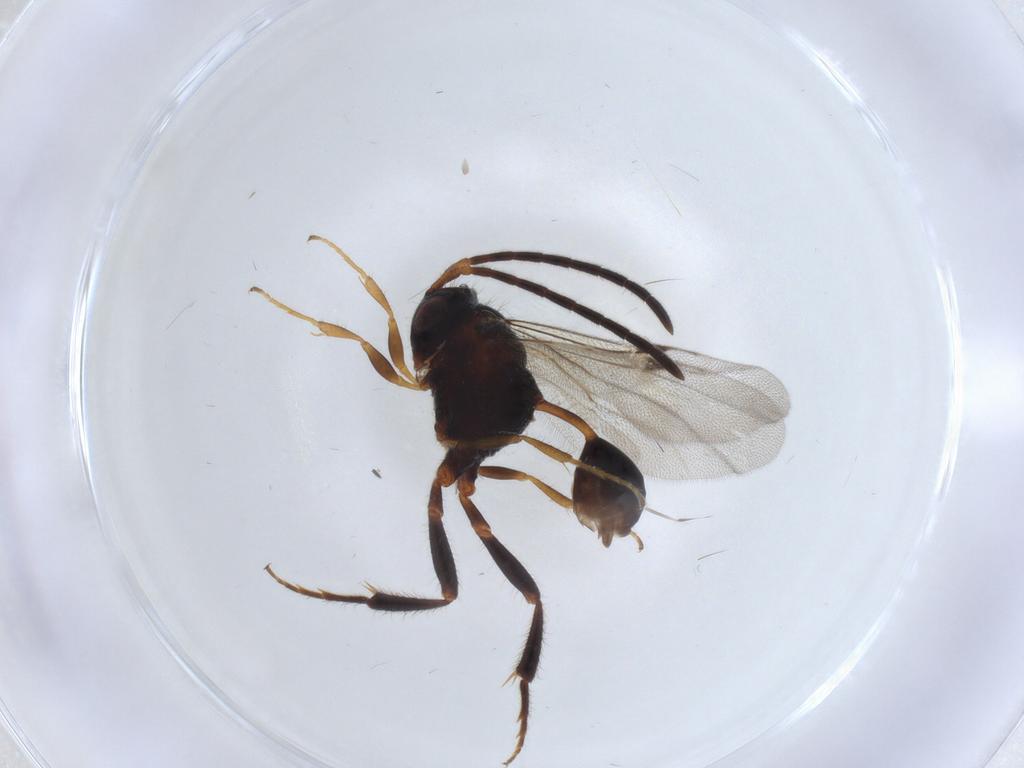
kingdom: Animalia
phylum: Arthropoda
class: Insecta
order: Hymenoptera
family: Evaniidae
